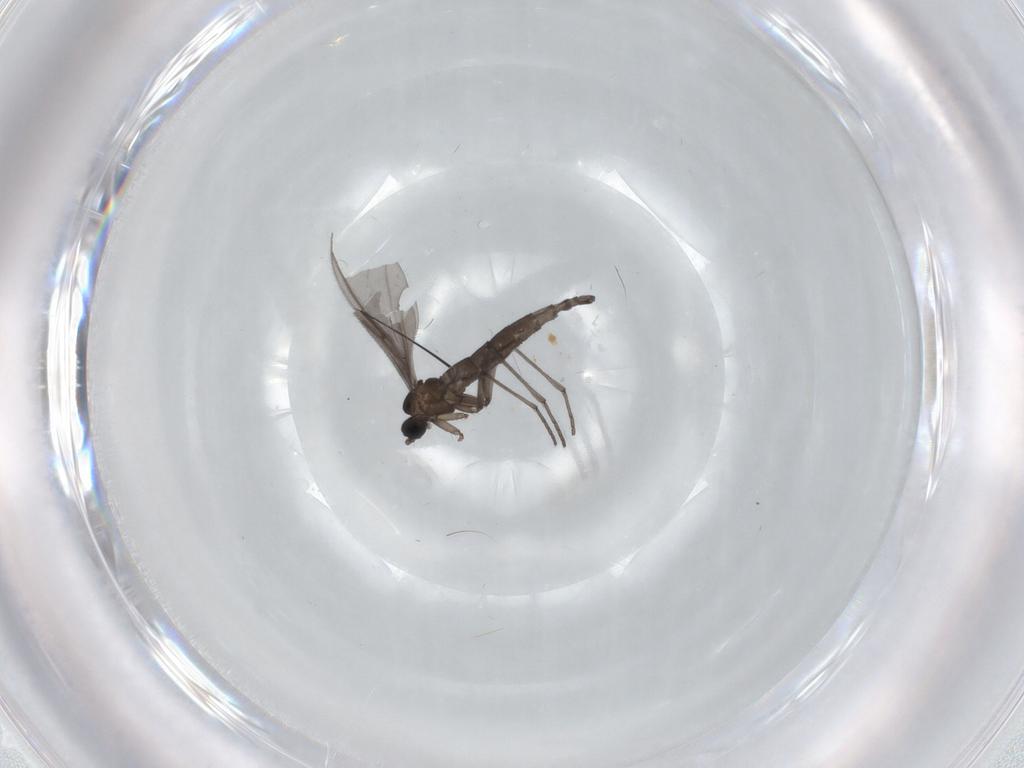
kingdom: Animalia
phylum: Arthropoda
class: Insecta
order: Diptera
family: Sciaridae
